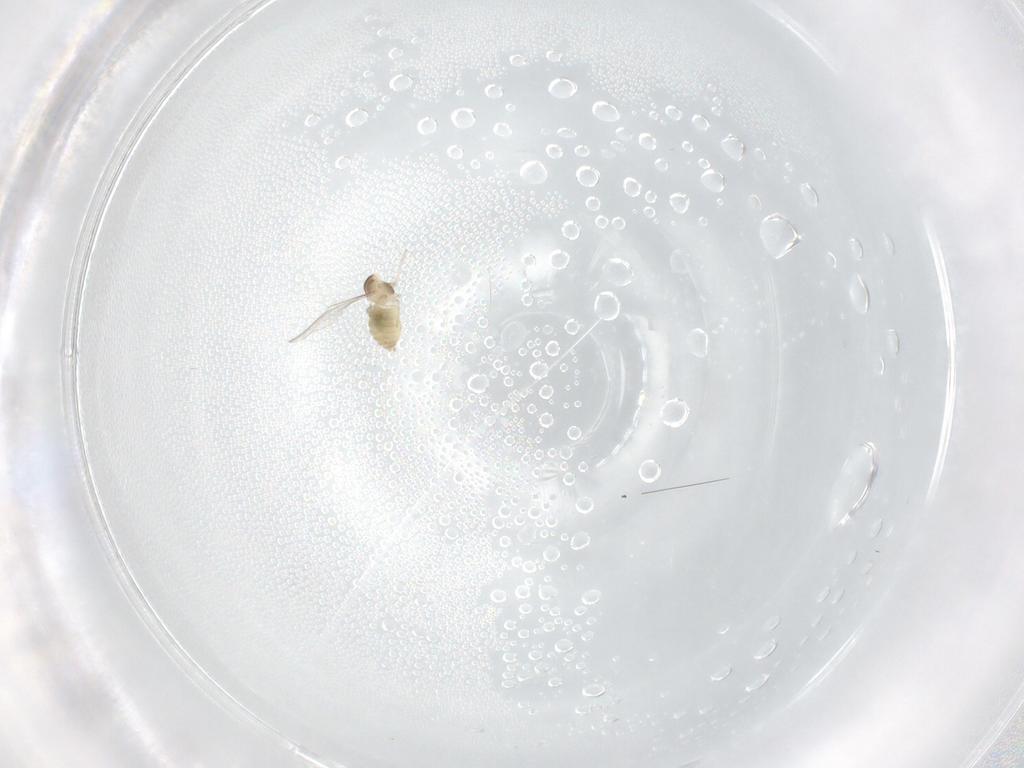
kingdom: Animalia
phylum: Arthropoda
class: Insecta
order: Diptera
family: Cecidomyiidae
